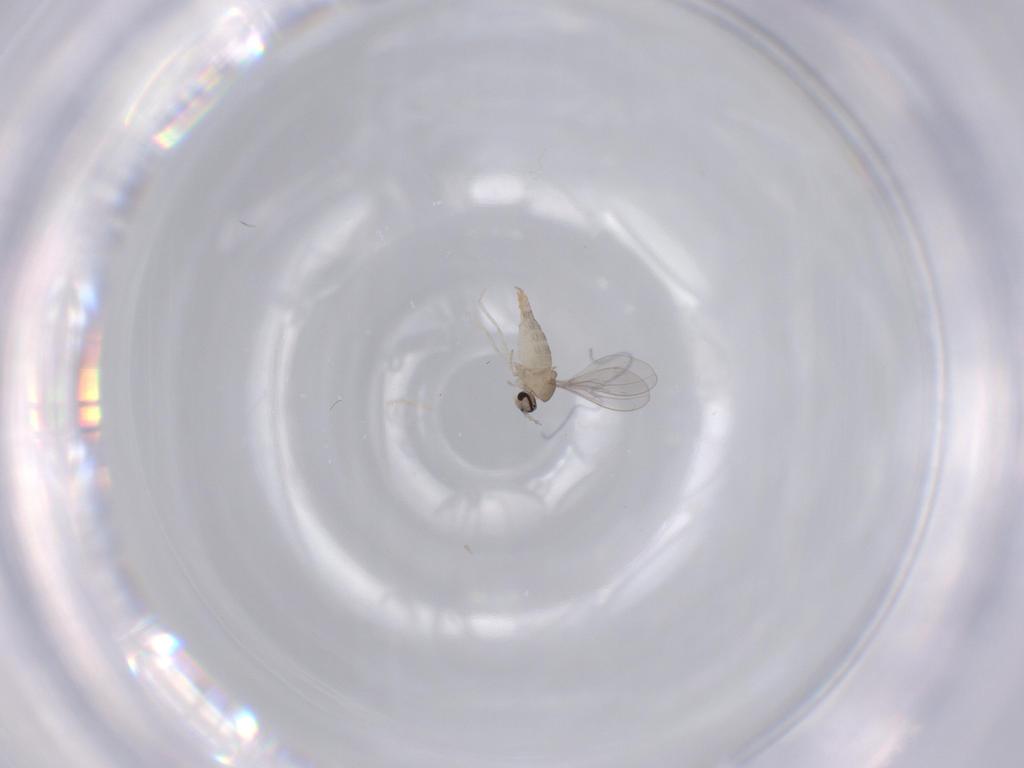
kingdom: Animalia
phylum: Arthropoda
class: Insecta
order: Diptera
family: Cecidomyiidae
